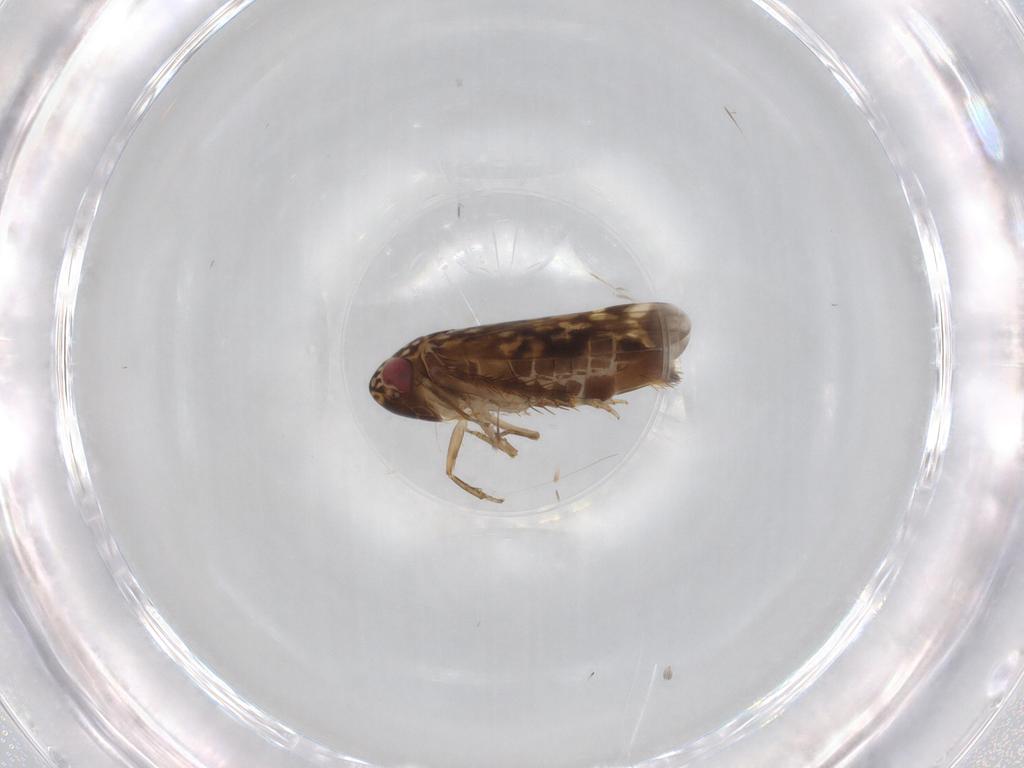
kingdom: Animalia
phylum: Arthropoda
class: Insecta
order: Hemiptera
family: Cicadellidae
